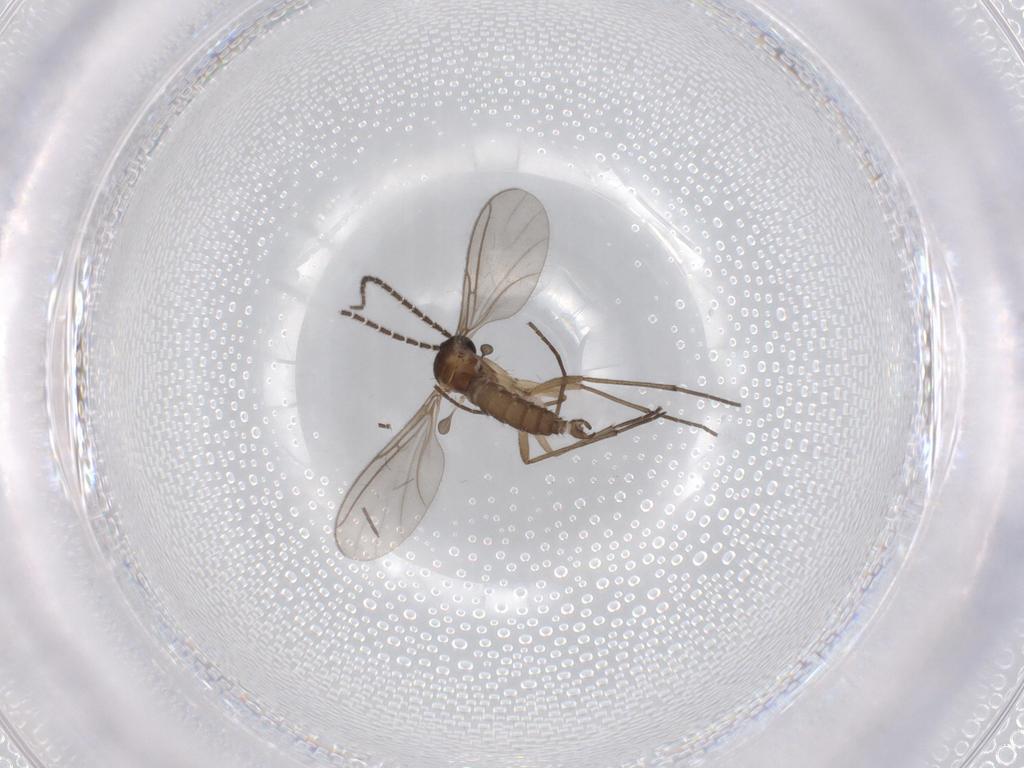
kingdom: Animalia
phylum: Arthropoda
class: Insecta
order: Diptera
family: Sciaridae
